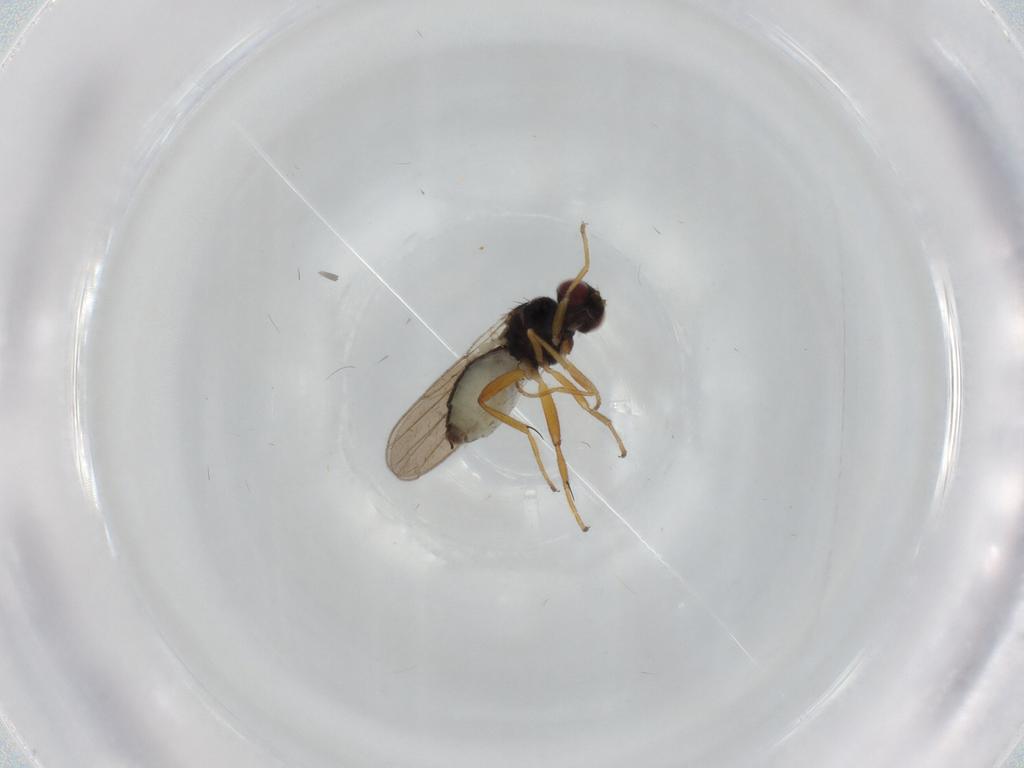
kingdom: Animalia
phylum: Arthropoda
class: Insecta
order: Diptera
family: Chloropidae
